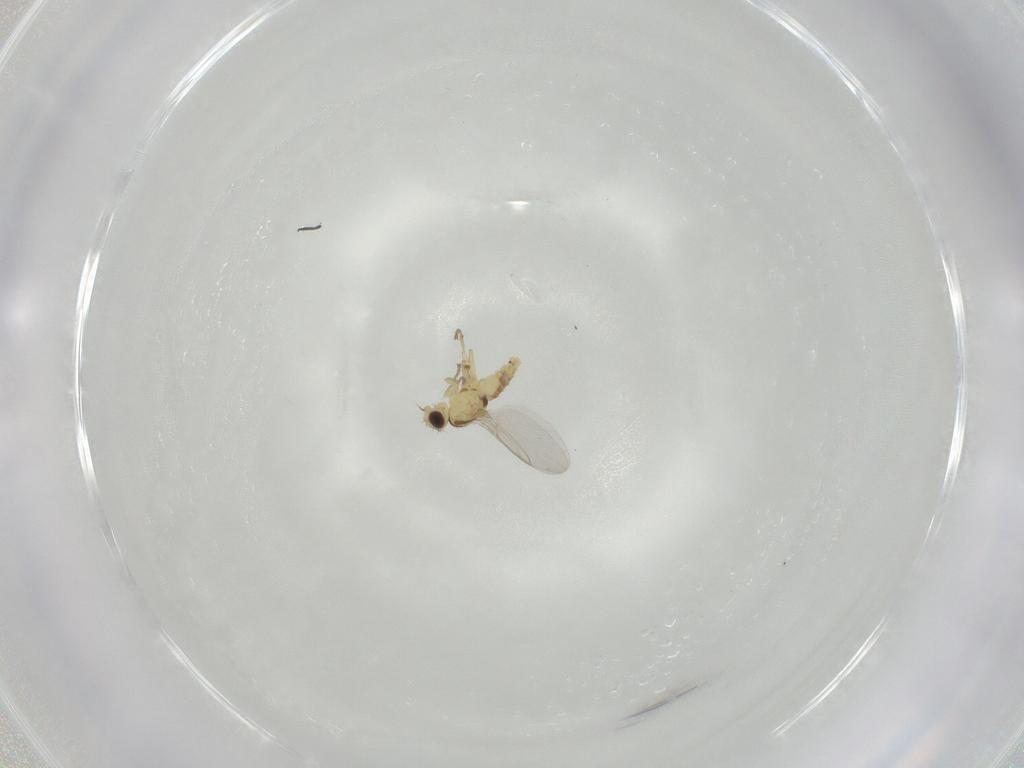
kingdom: Animalia
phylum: Arthropoda
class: Insecta
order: Diptera
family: Agromyzidae
